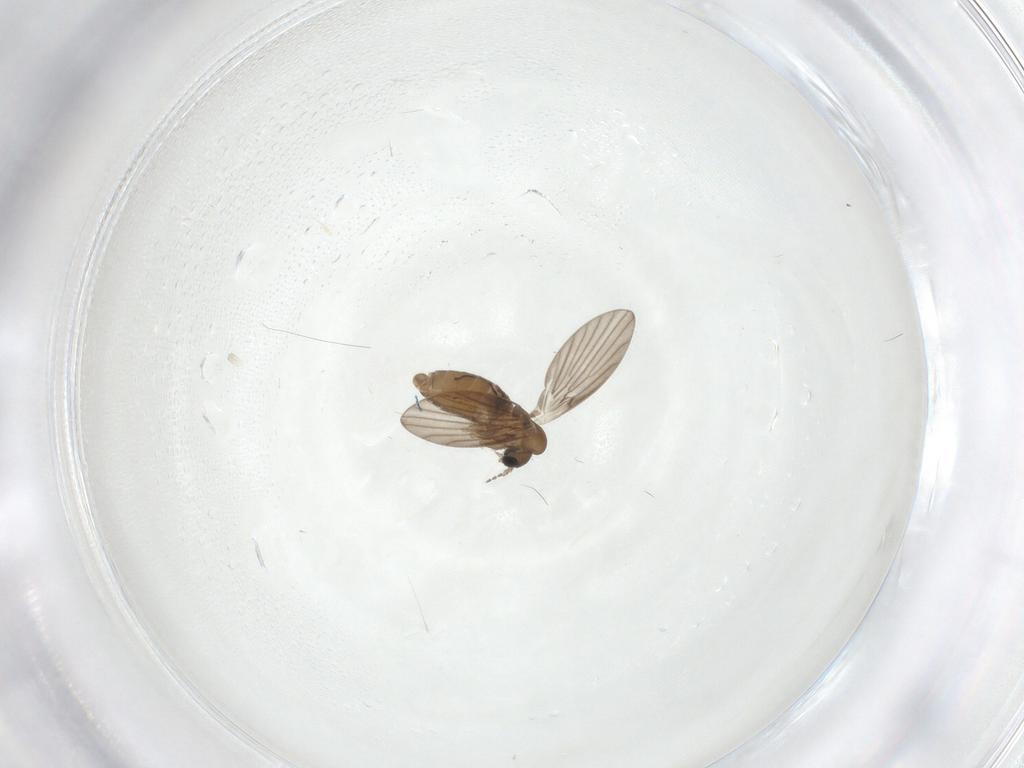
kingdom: Animalia
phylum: Arthropoda
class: Insecta
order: Diptera
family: Psychodidae
